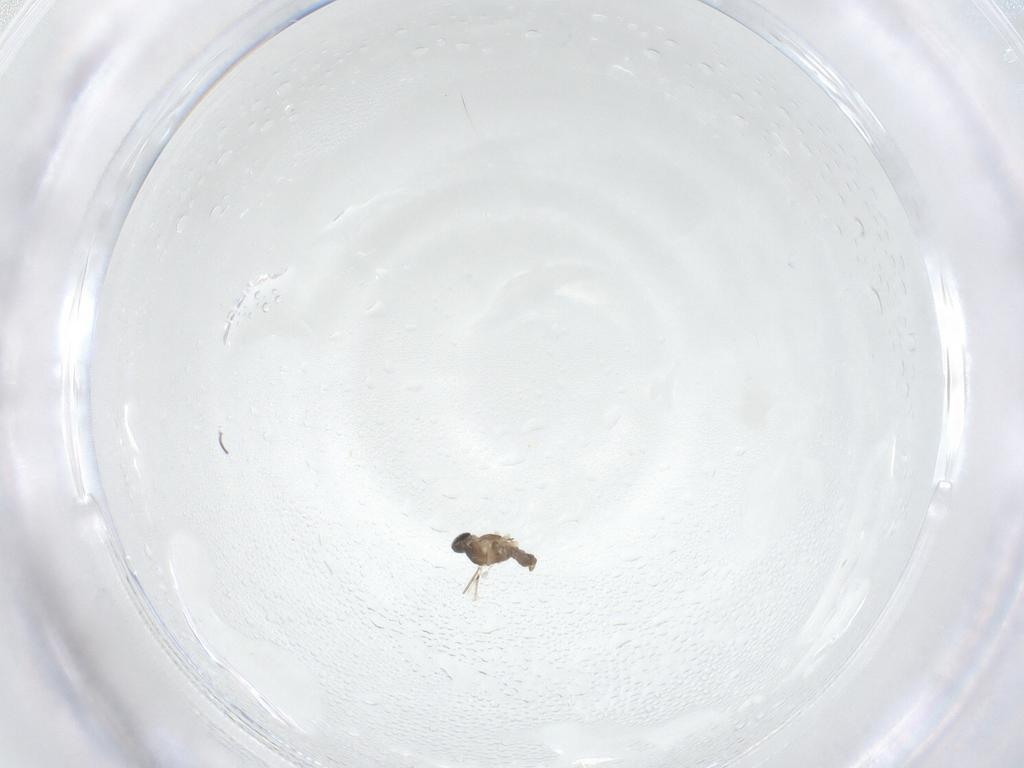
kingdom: Animalia
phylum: Arthropoda
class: Insecta
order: Diptera
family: Cecidomyiidae
